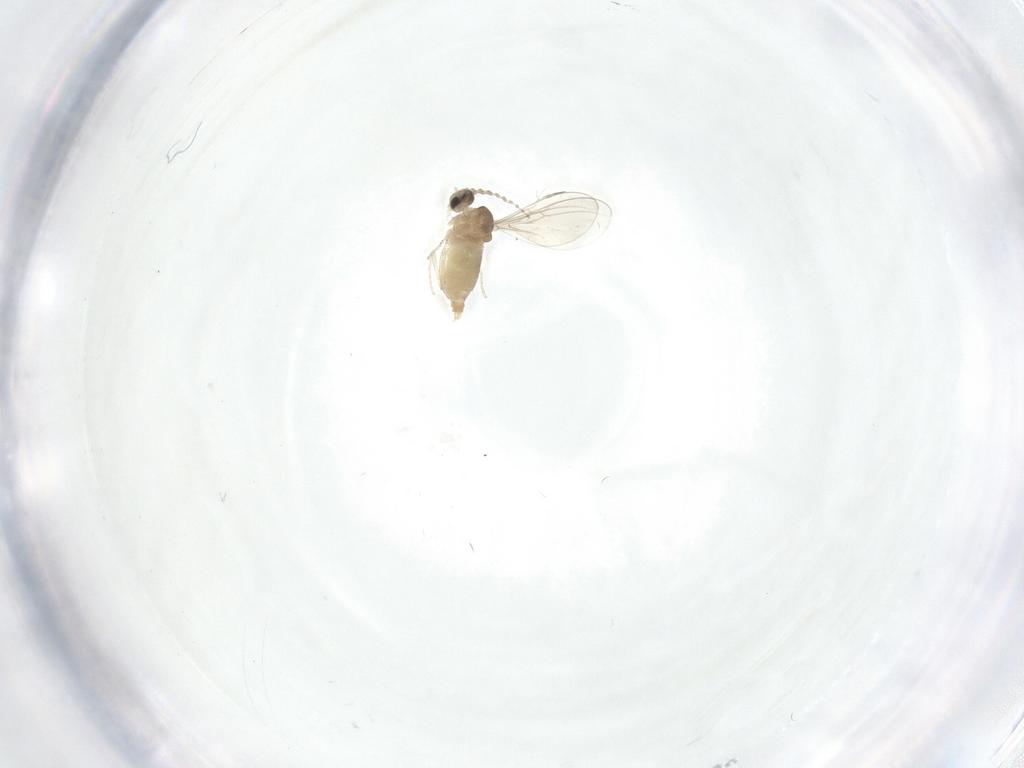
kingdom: Animalia
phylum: Arthropoda
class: Insecta
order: Diptera
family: Cecidomyiidae
